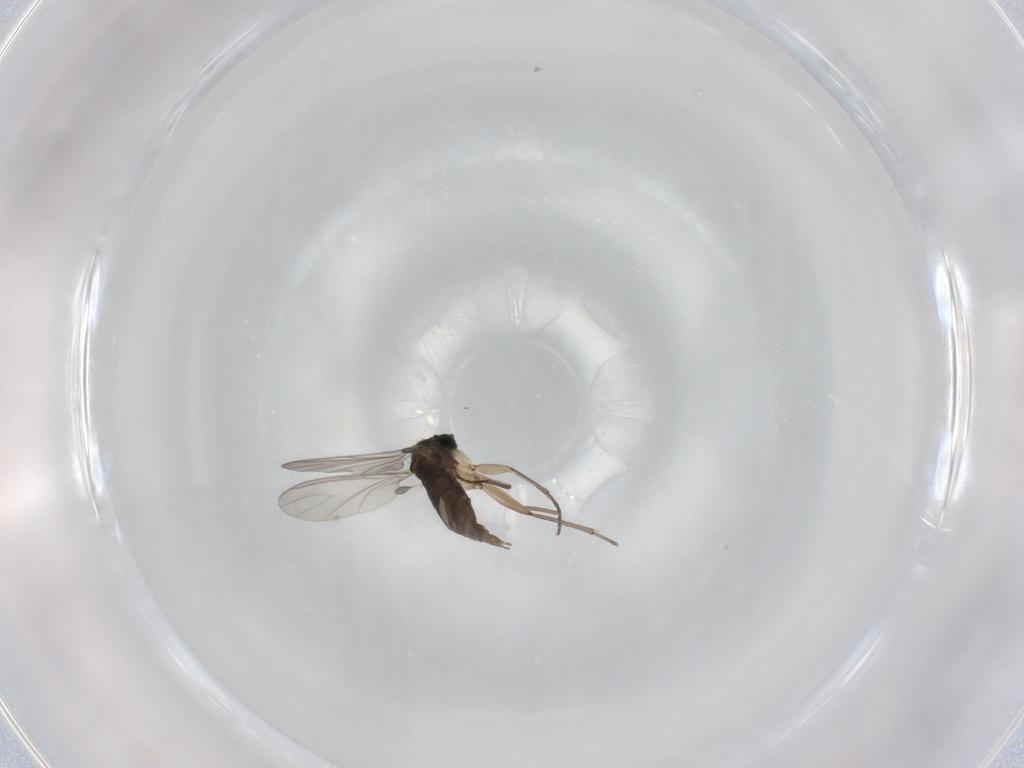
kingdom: Animalia
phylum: Arthropoda
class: Insecta
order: Diptera
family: Sciaridae
